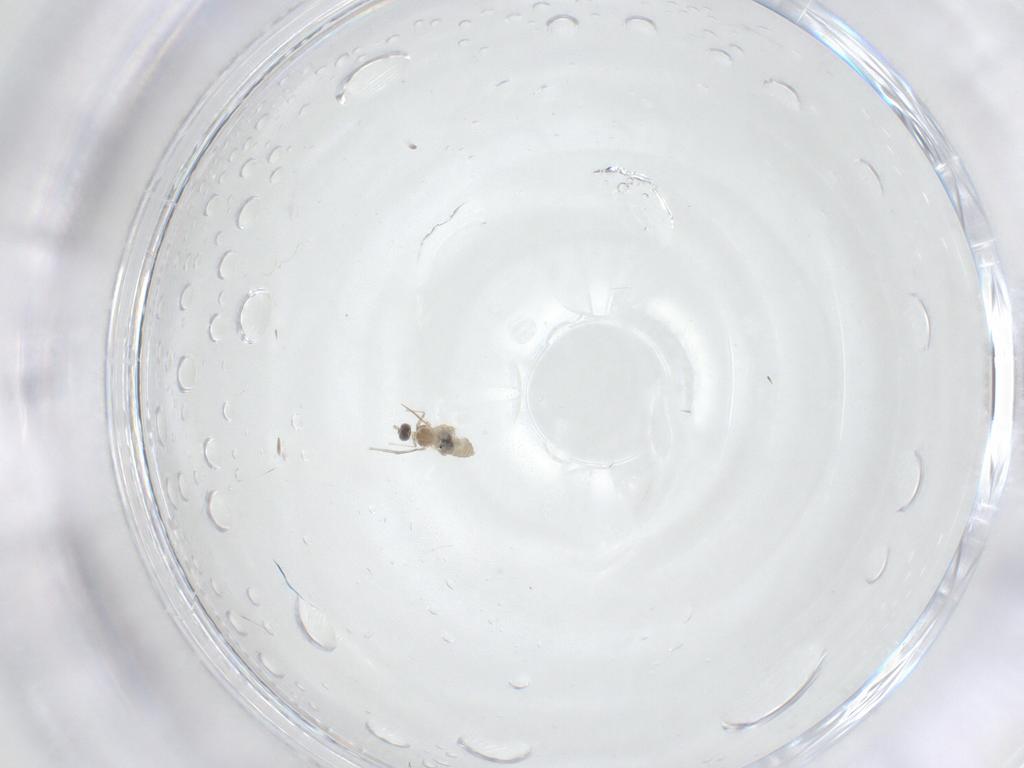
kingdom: Animalia
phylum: Arthropoda
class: Insecta
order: Diptera
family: Cecidomyiidae
